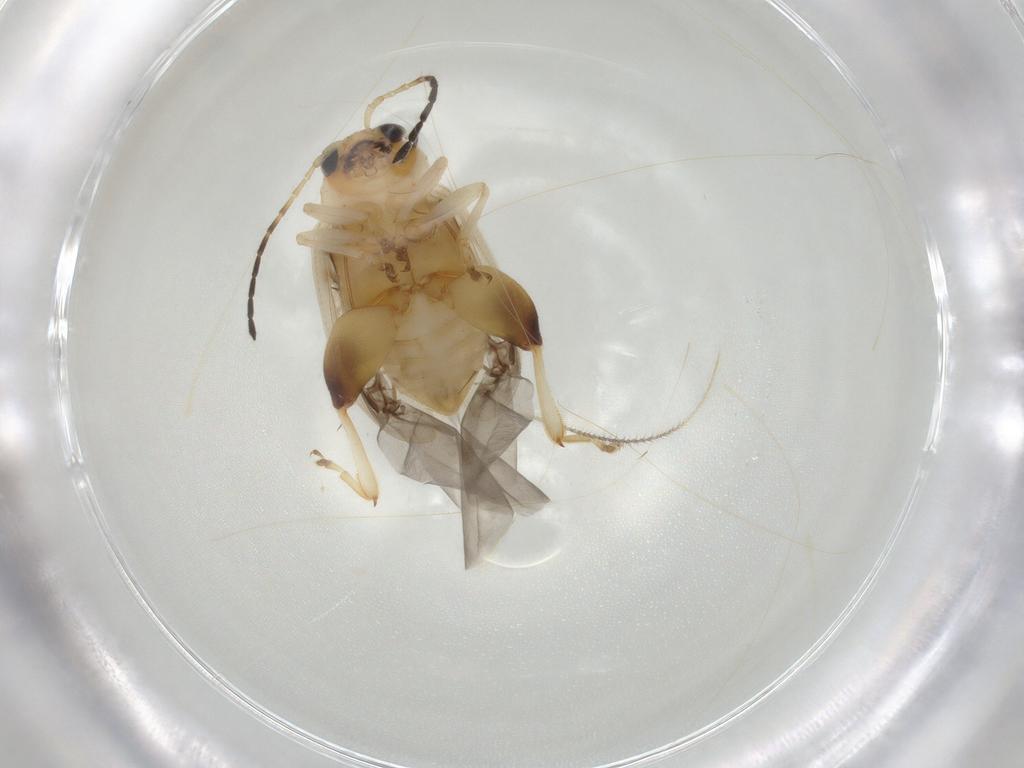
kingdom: Animalia
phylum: Arthropoda
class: Insecta
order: Coleoptera
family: Chrysomelidae
